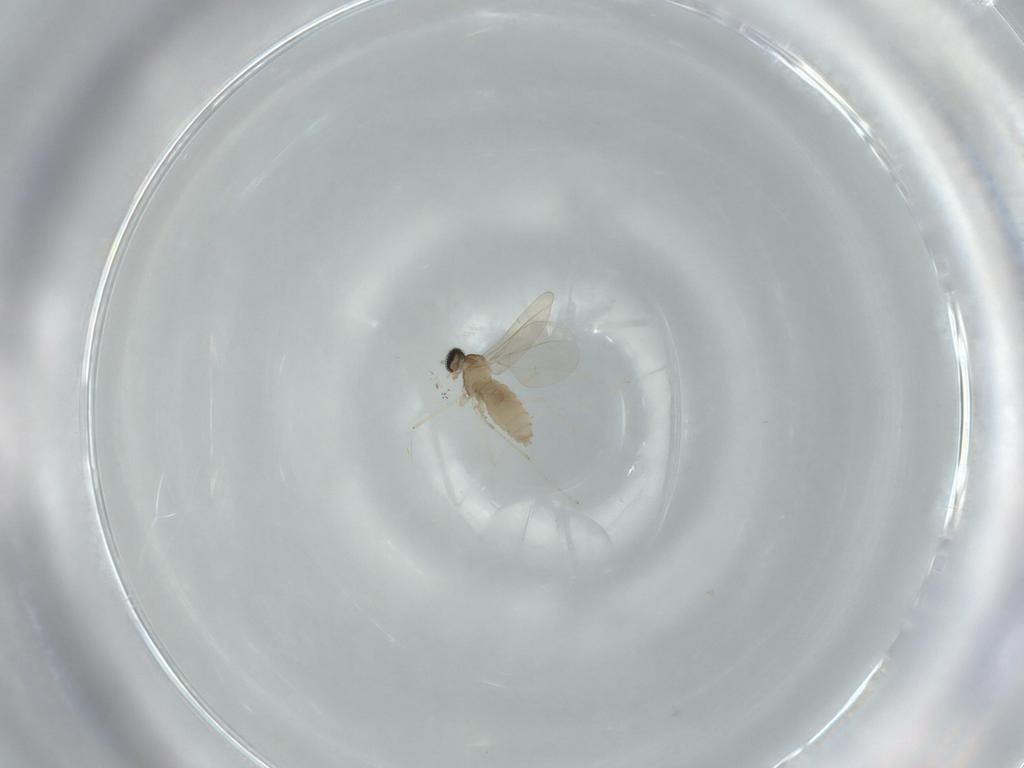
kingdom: Animalia
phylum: Arthropoda
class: Insecta
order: Diptera
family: Cecidomyiidae
